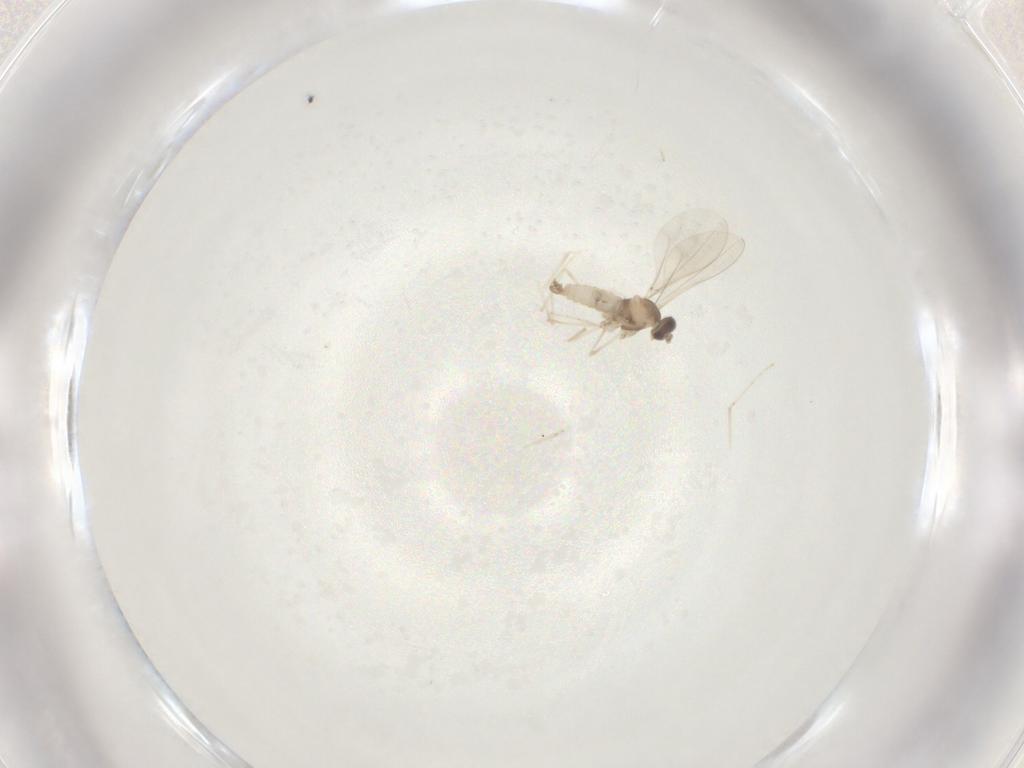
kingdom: Animalia
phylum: Arthropoda
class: Insecta
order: Diptera
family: Cecidomyiidae
